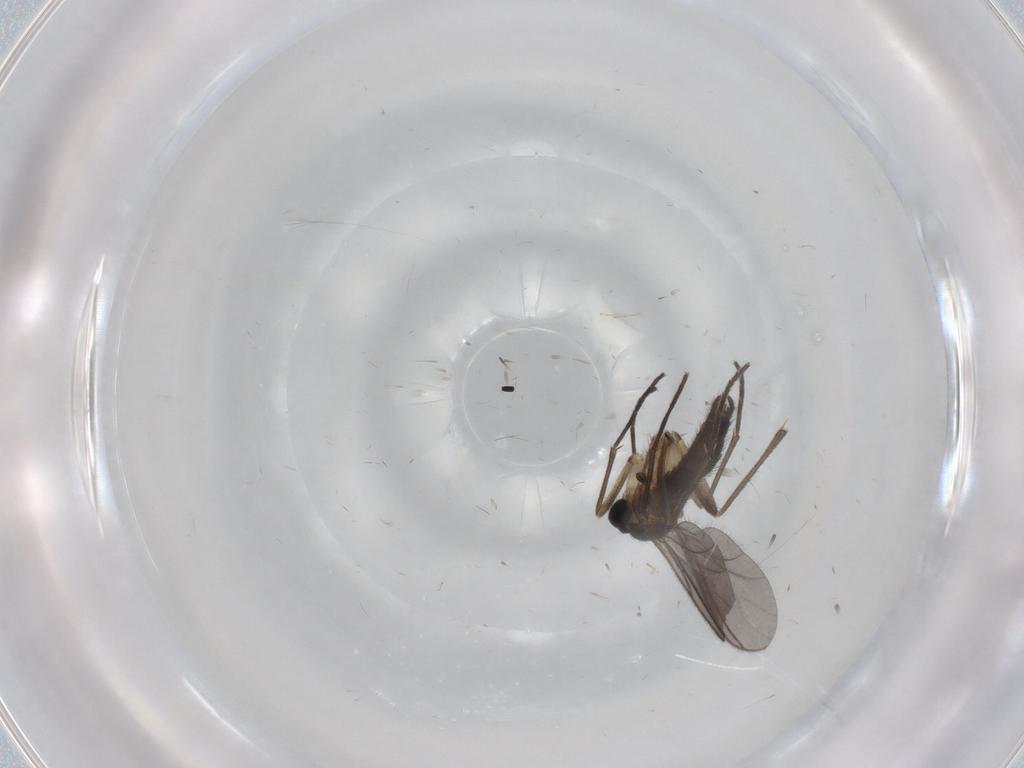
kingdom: Animalia
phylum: Arthropoda
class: Insecta
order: Diptera
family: Sciaridae
